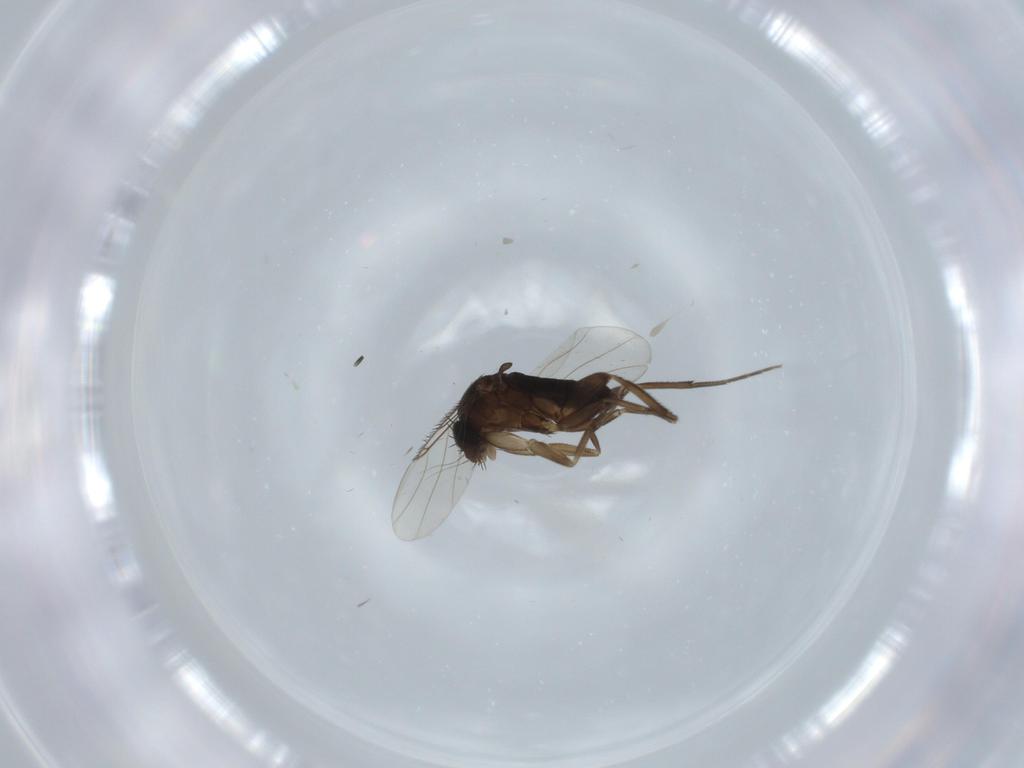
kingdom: Animalia
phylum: Arthropoda
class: Insecta
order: Diptera
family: Phoridae
